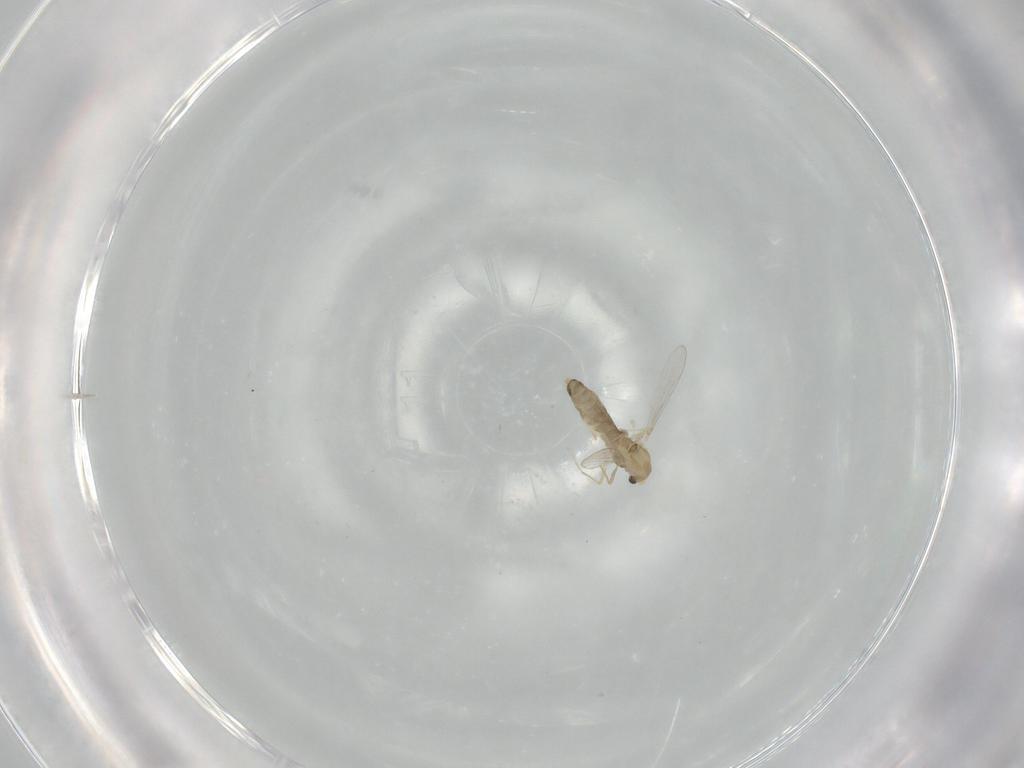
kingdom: Animalia
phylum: Arthropoda
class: Insecta
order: Diptera
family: Chironomidae
